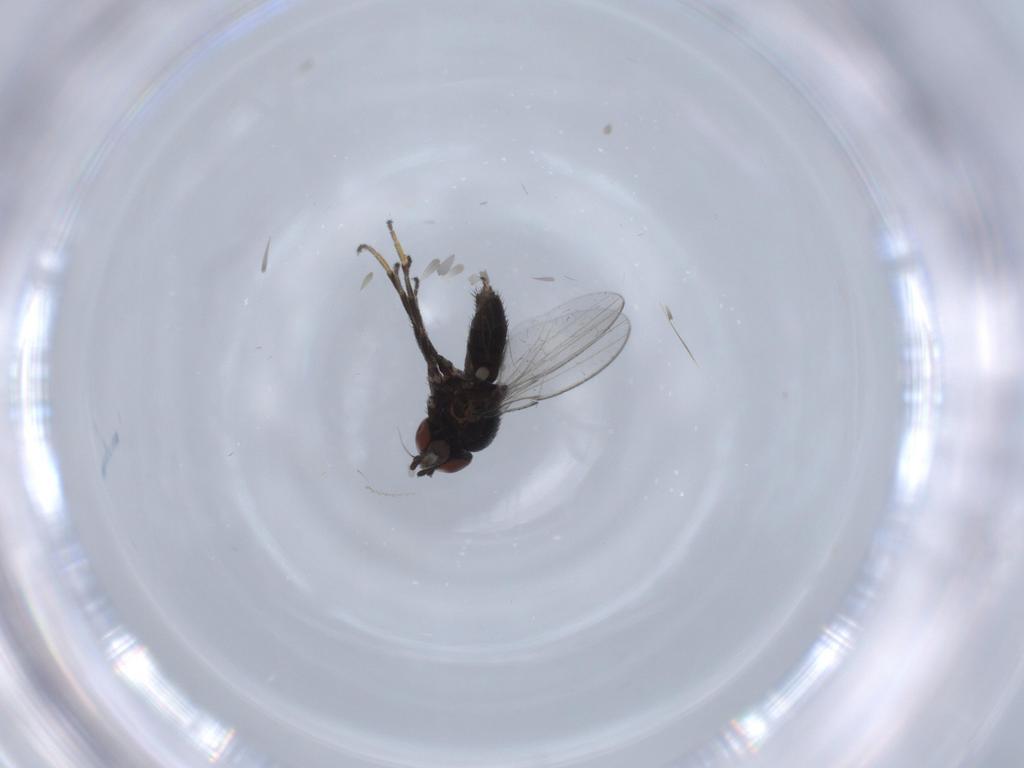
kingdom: Animalia
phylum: Arthropoda
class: Insecta
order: Diptera
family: Milichiidae
